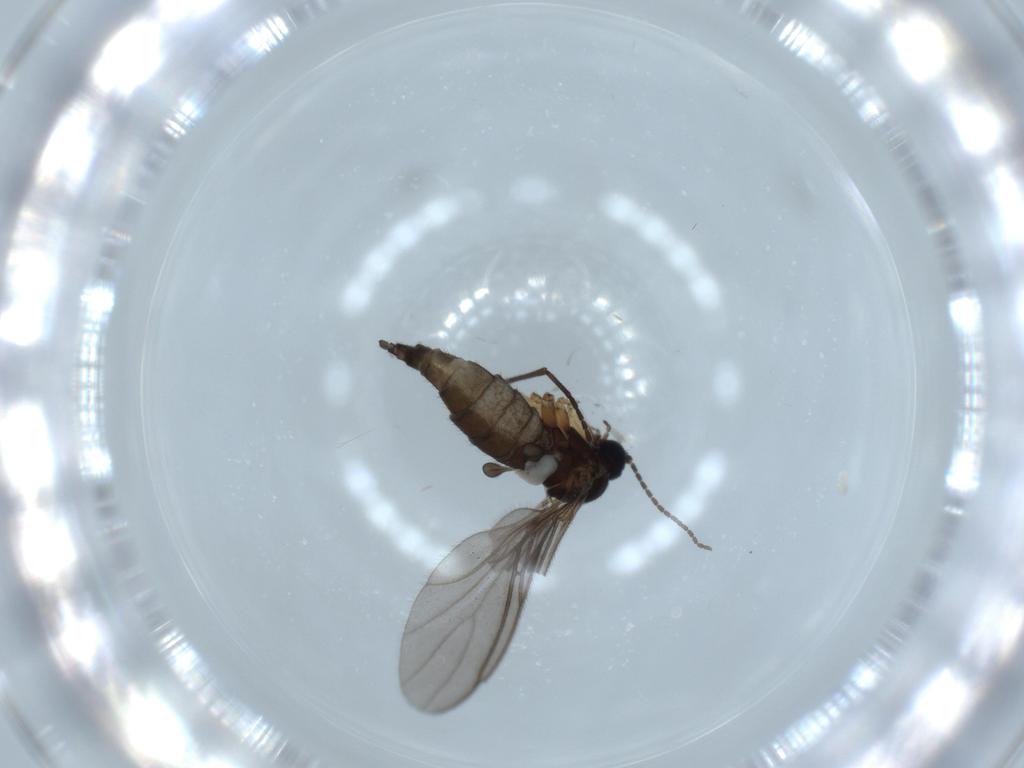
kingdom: Animalia
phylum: Arthropoda
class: Insecta
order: Diptera
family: Sciaridae
